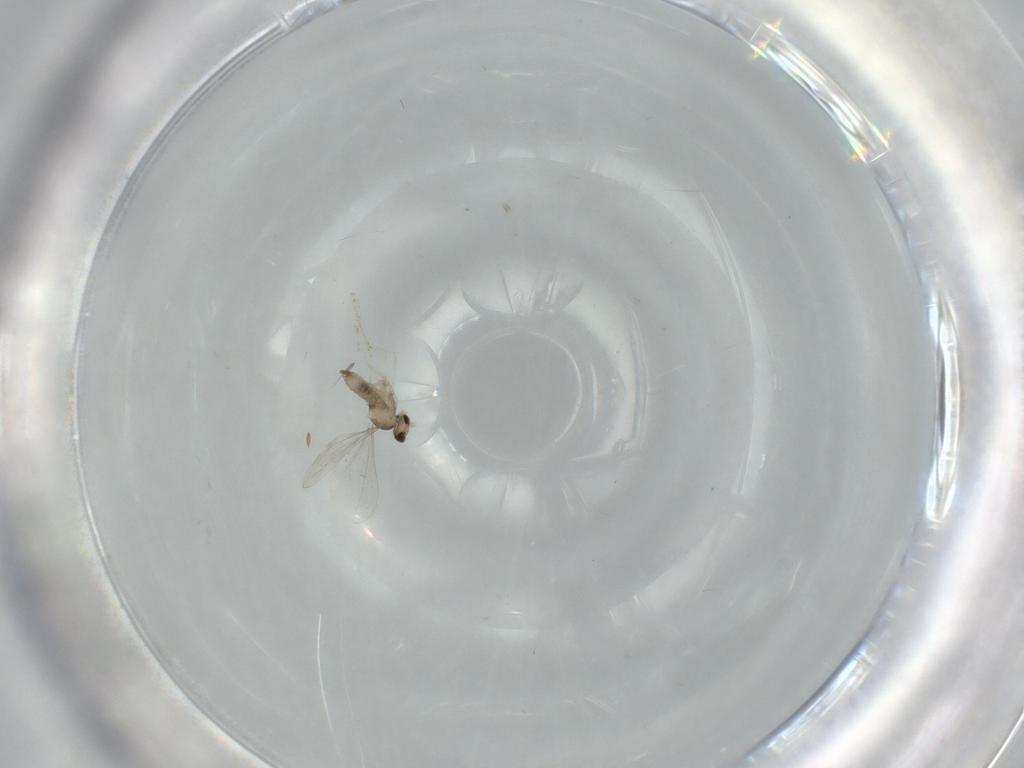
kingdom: Animalia
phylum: Arthropoda
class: Insecta
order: Diptera
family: Cecidomyiidae
